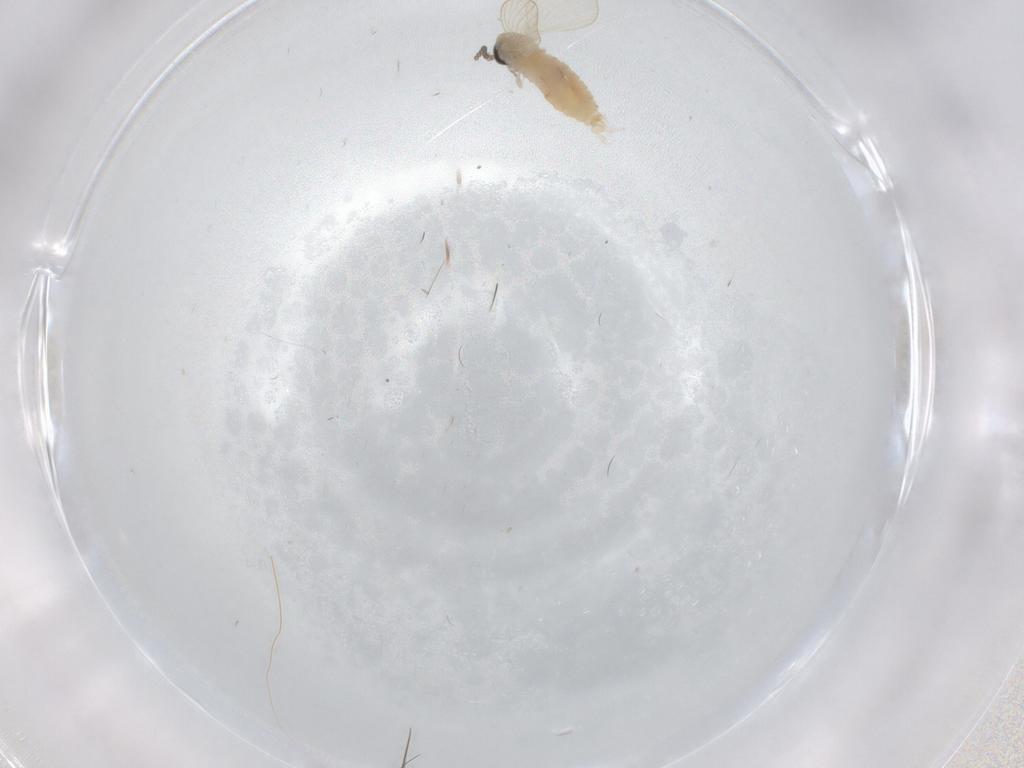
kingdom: Animalia
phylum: Arthropoda
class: Insecta
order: Diptera
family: Psychodidae
